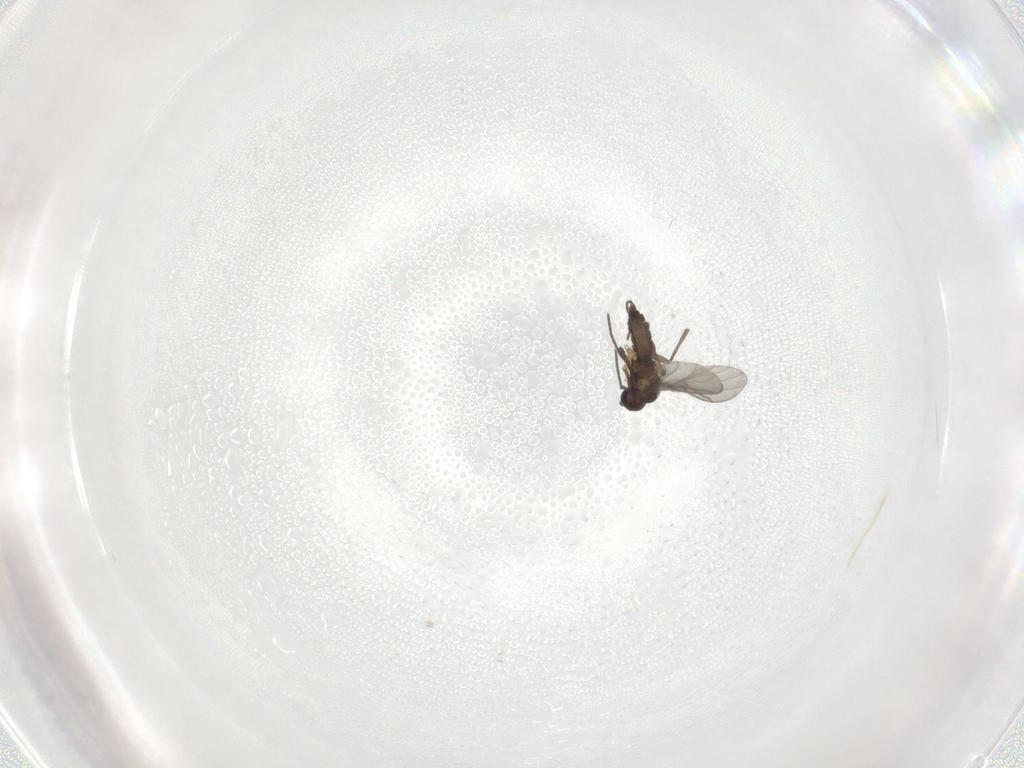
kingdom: Animalia
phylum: Arthropoda
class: Insecta
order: Diptera
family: Sciaridae
